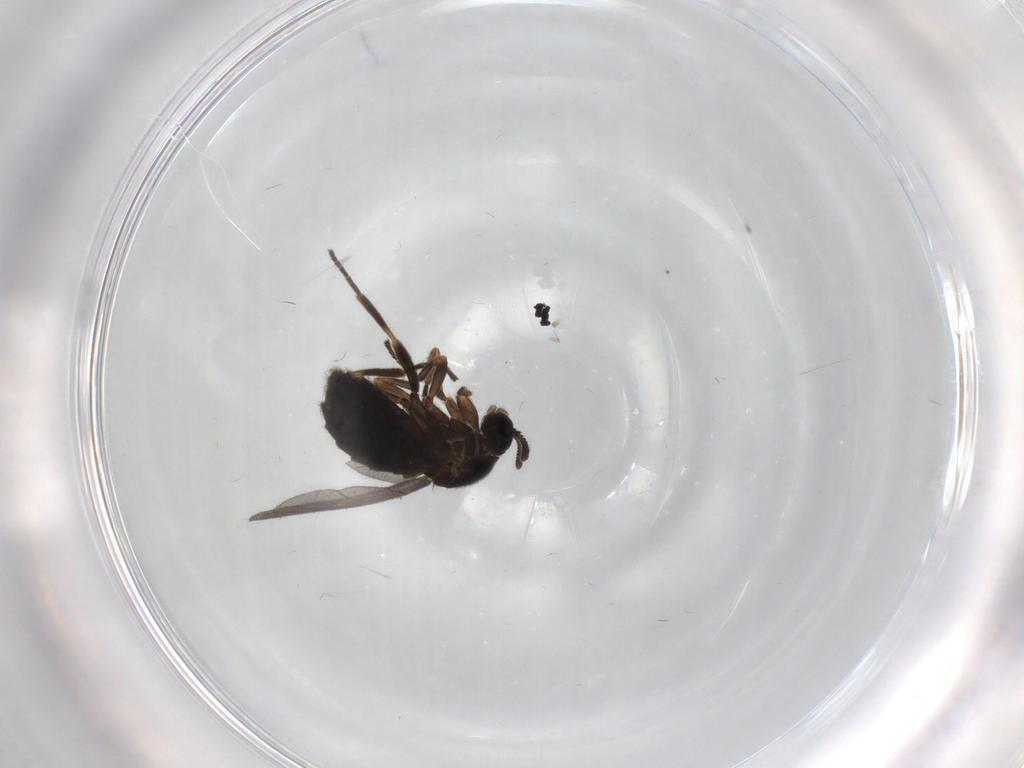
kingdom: Animalia
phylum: Arthropoda
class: Insecta
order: Diptera
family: Scatopsidae
